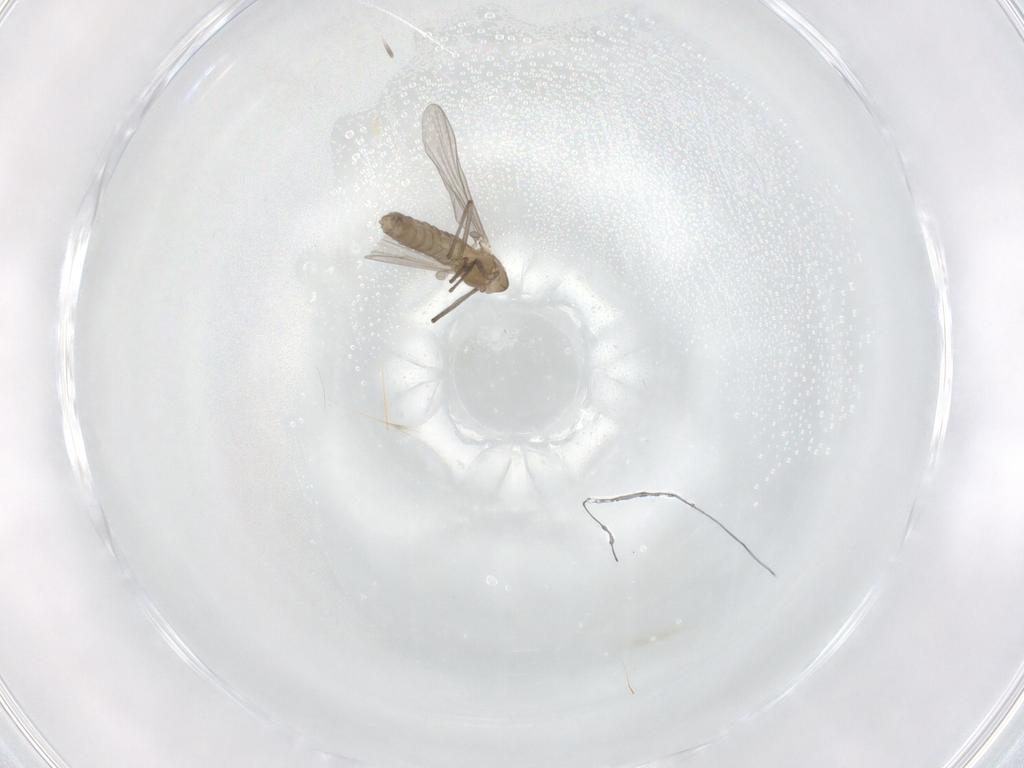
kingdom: Animalia
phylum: Arthropoda
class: Insecta
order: Diptera
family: Chironomidae
